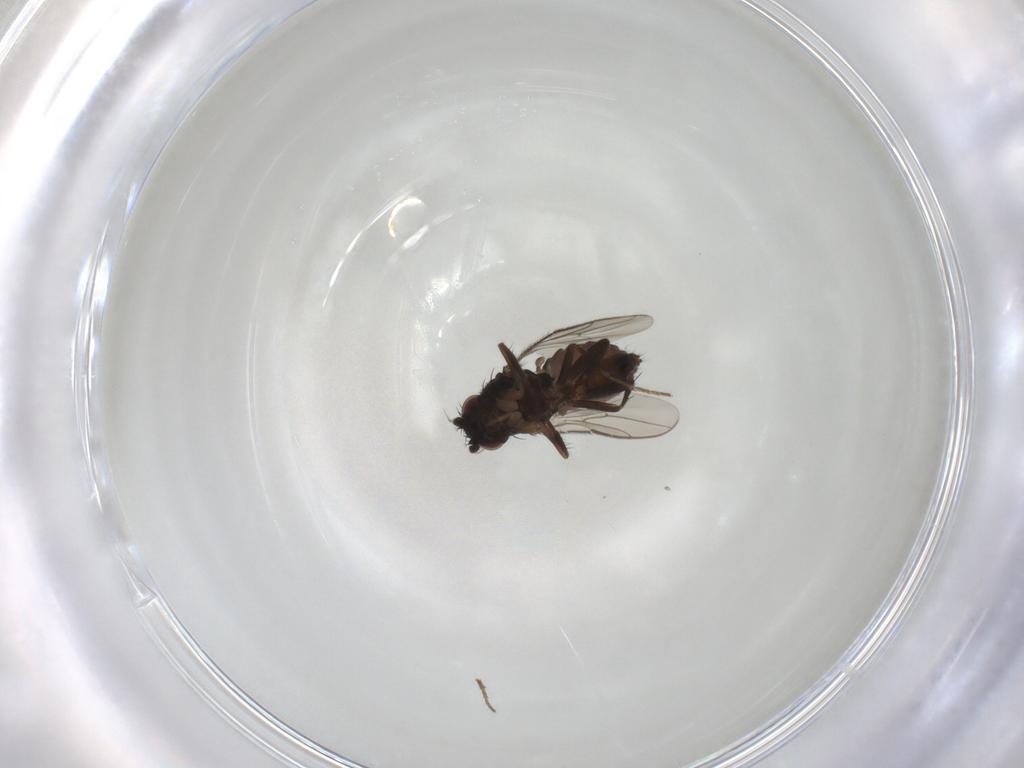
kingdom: Animalia
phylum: Arthropoda
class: Insecta
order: Diptera
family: Sphaeroceridae
